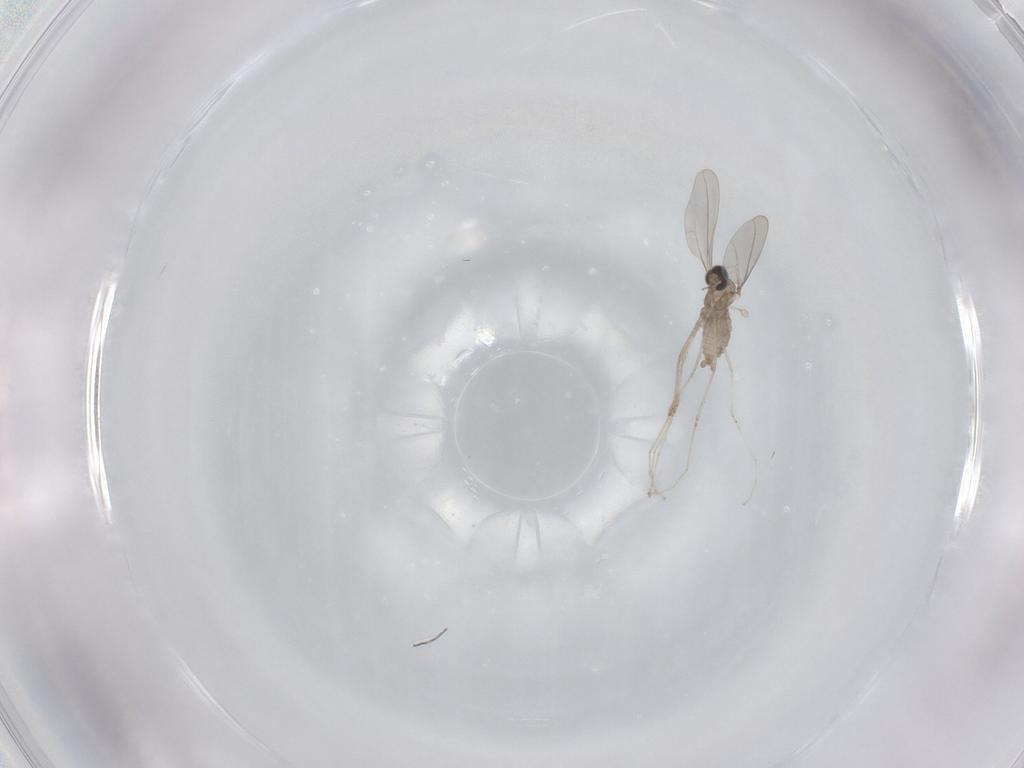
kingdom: Animalia
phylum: Arthropoda
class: Insecta
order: Diptera
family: Cecidomyiidae
